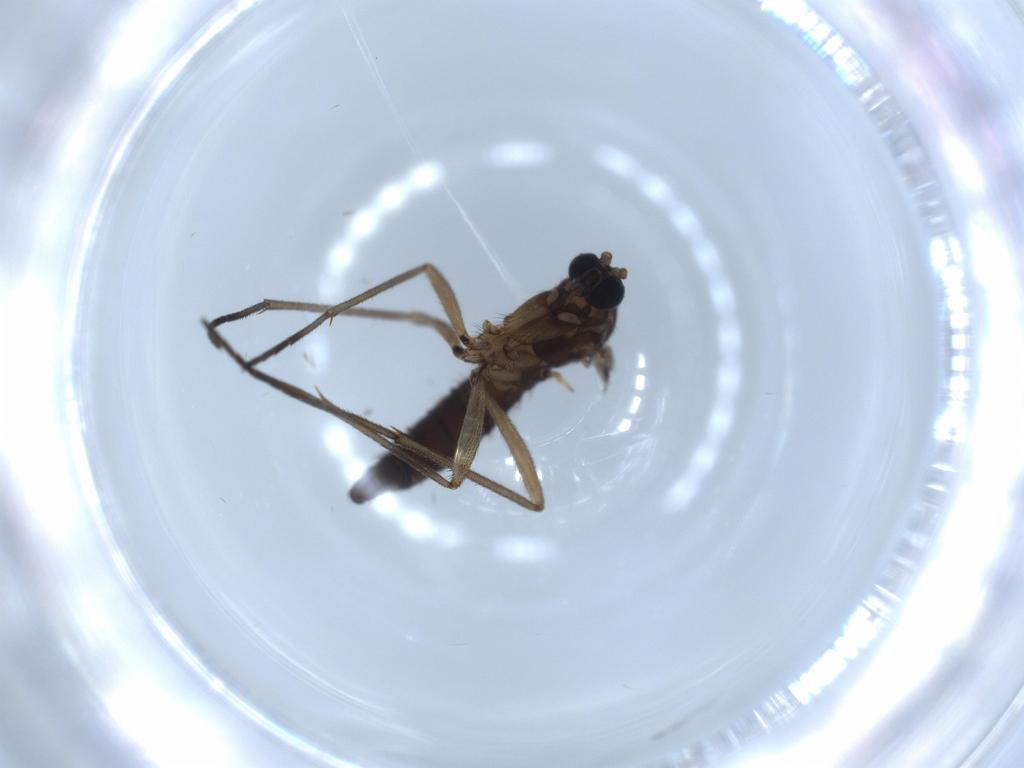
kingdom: Animalia
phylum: Arthropoda
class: Insecta
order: Diptera
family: Sciaridae
